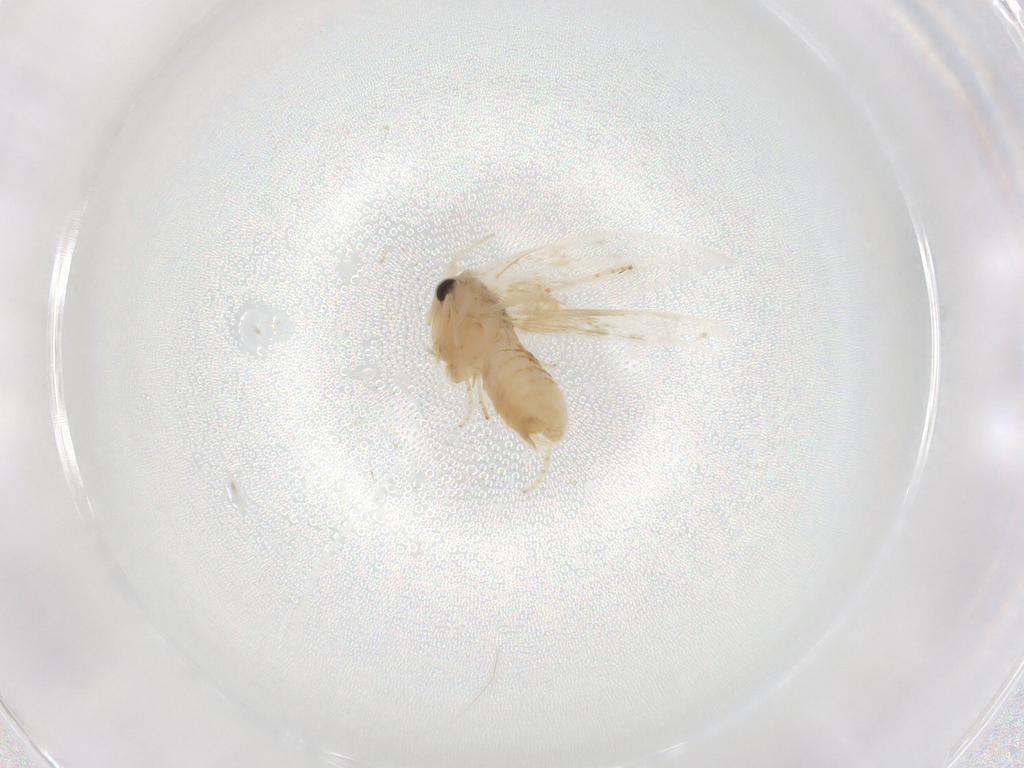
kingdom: Animalia
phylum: Arthropoda
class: Insecta
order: Lepidoptera
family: Bucculatricidae
